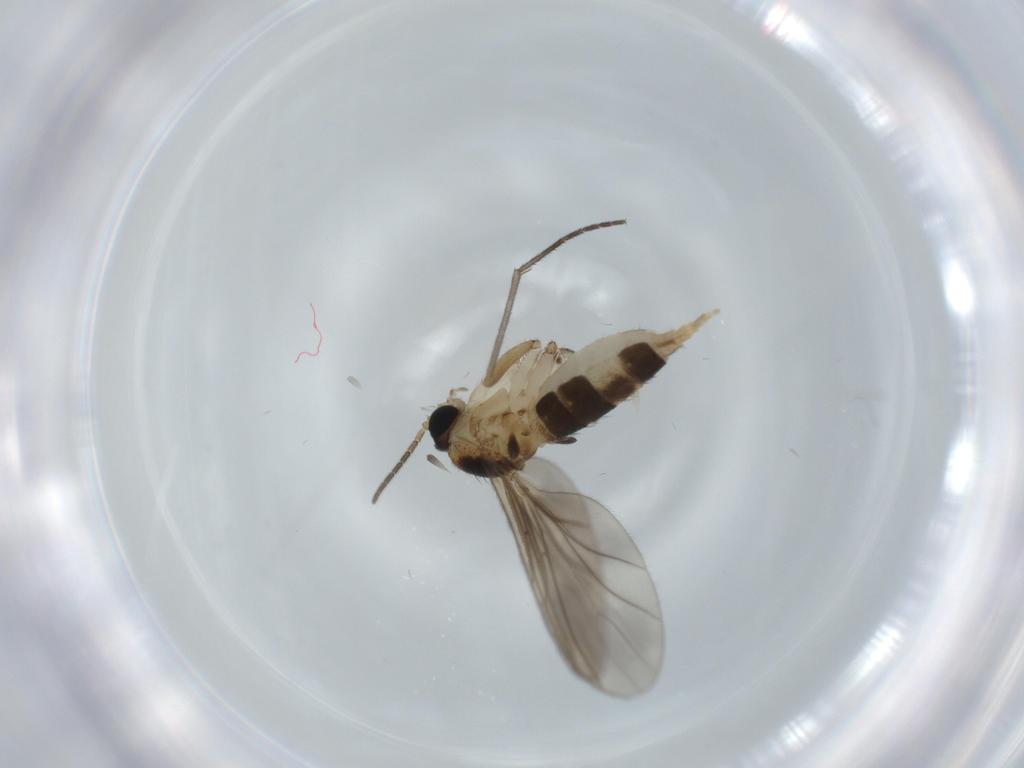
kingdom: Animalia
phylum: Arthropoda
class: Insecta
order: Diptera
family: Sciaridae
